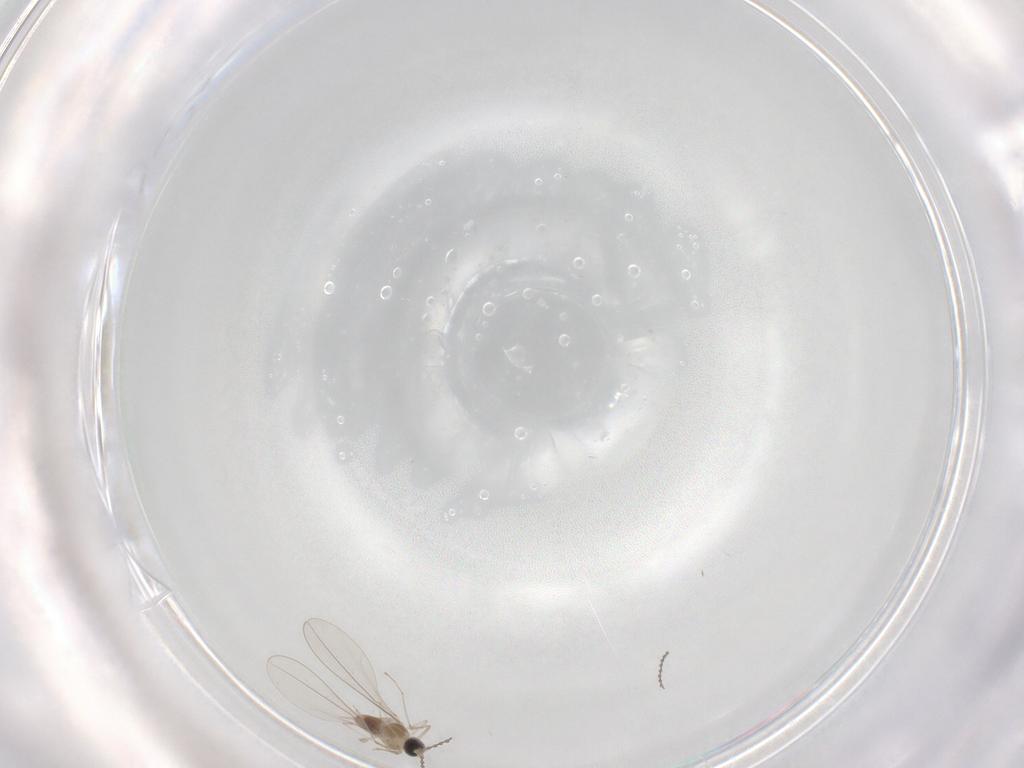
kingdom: Animalia
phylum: Arthropoda
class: Insecta
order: Diptera
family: Cecidomyiidae
